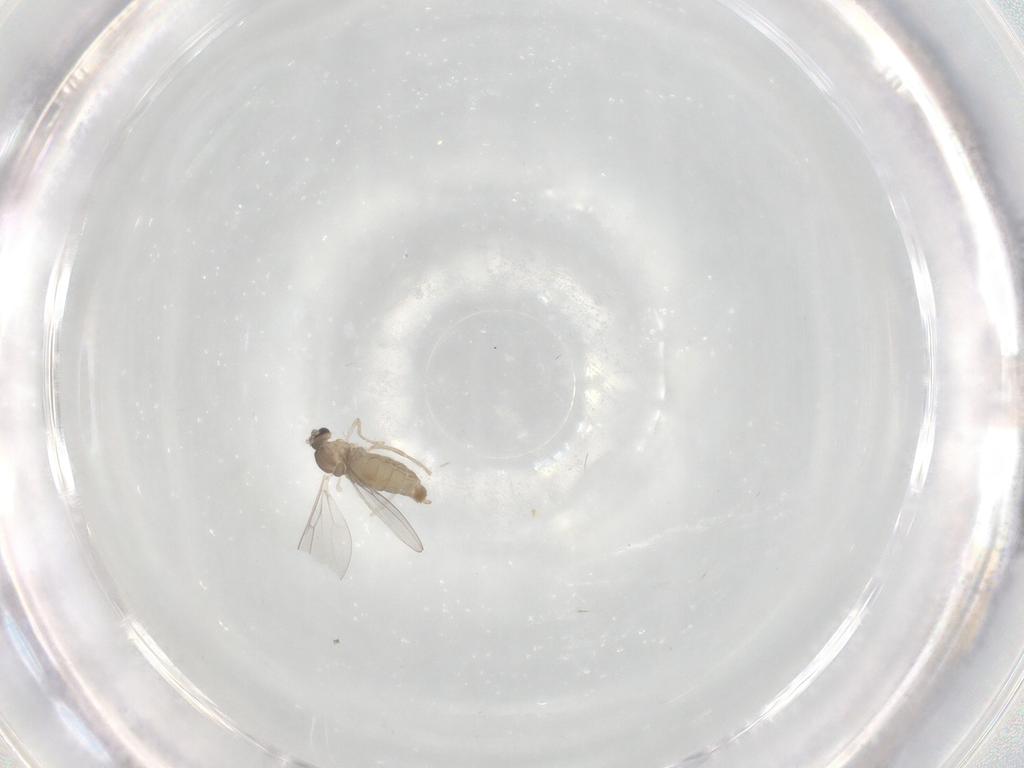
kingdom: Animalia
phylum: Arthropoda
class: Insecta
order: Diptera
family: Cecidomyiidae
